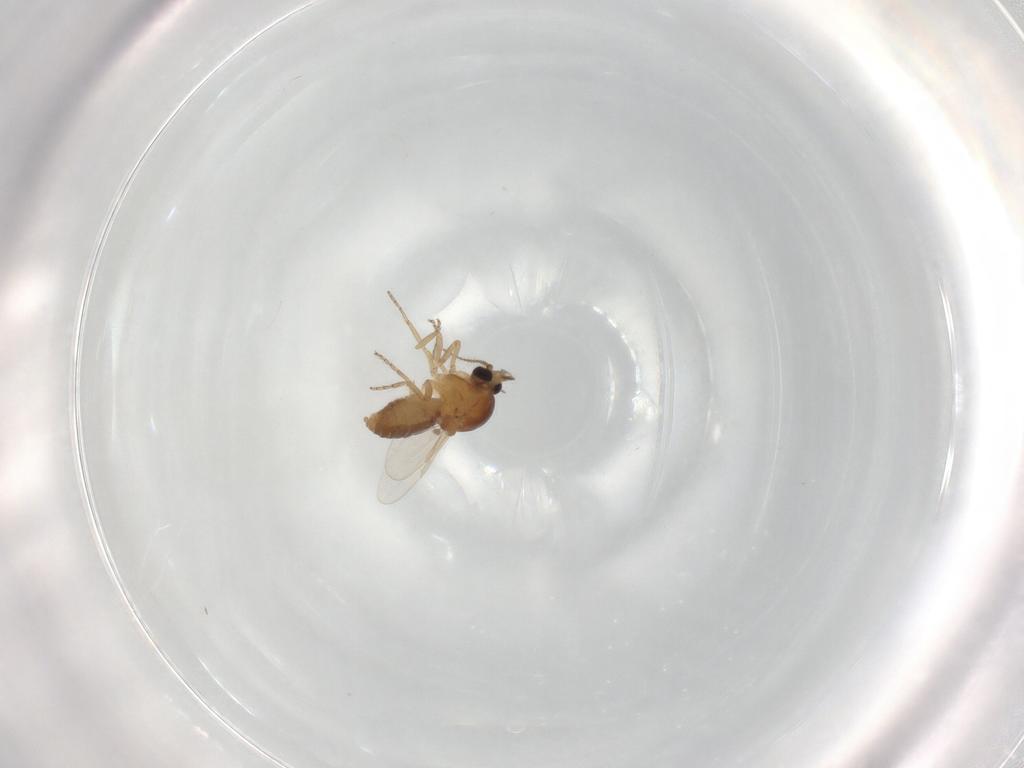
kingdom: Animalia
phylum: Arthropoda
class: Insecta
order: Diptera
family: Ceratopogonidae
